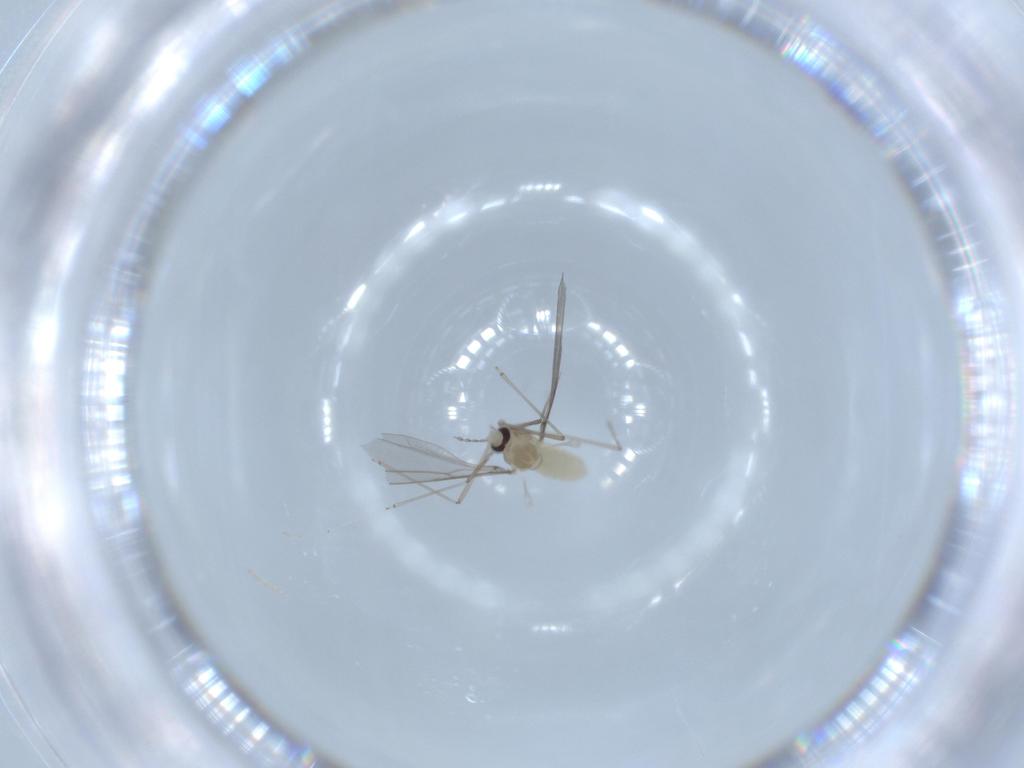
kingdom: Animalia
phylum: Arthropoda
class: Insecta
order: Diptera
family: Cecidomyiidae
